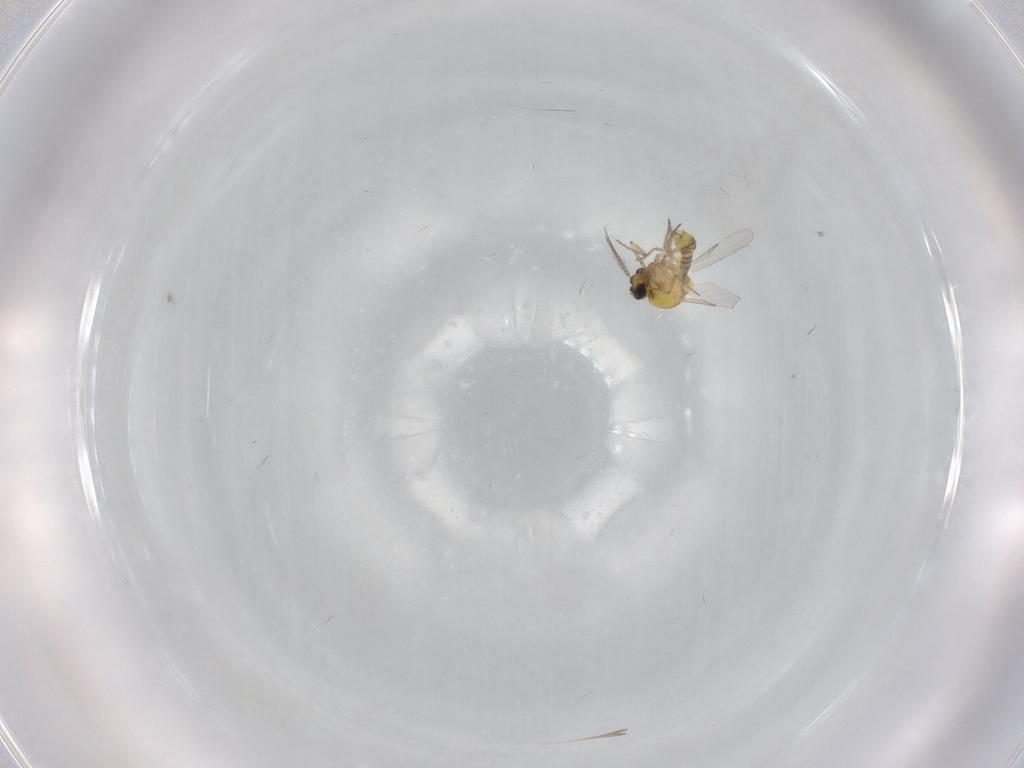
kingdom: Animalia
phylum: Arthropoda
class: Insecta
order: Diptera
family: Ceratopogonidae
